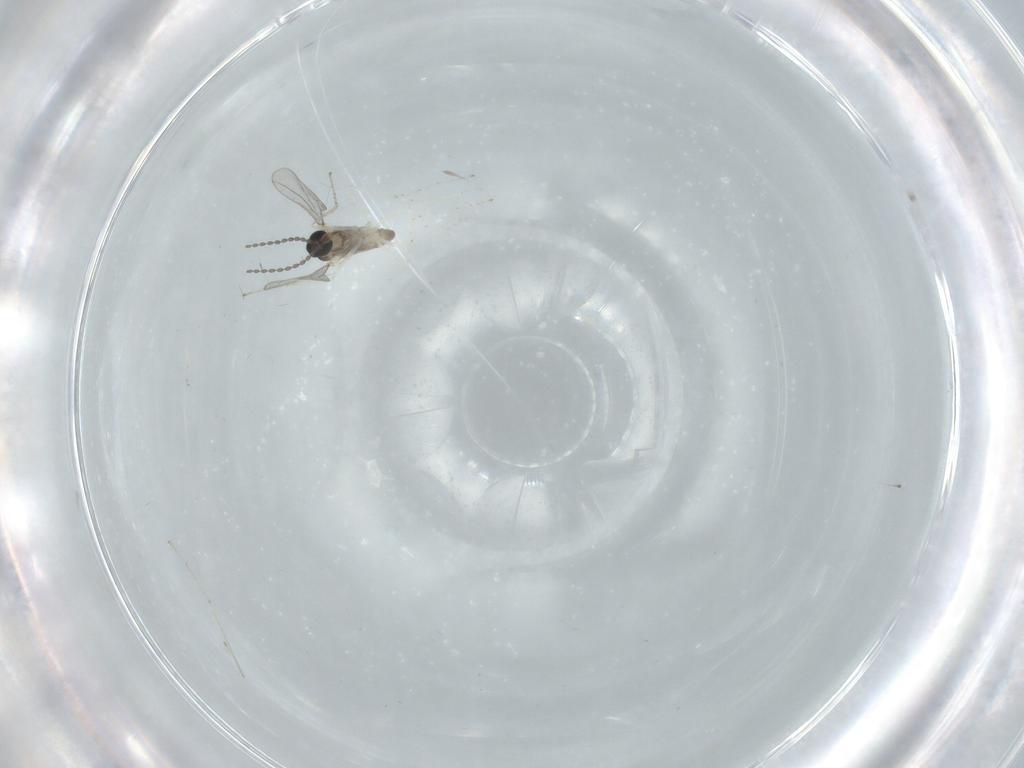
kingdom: Animalia
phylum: Arthropoda
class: Insecta
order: Diptera
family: Cecidomyiidae
